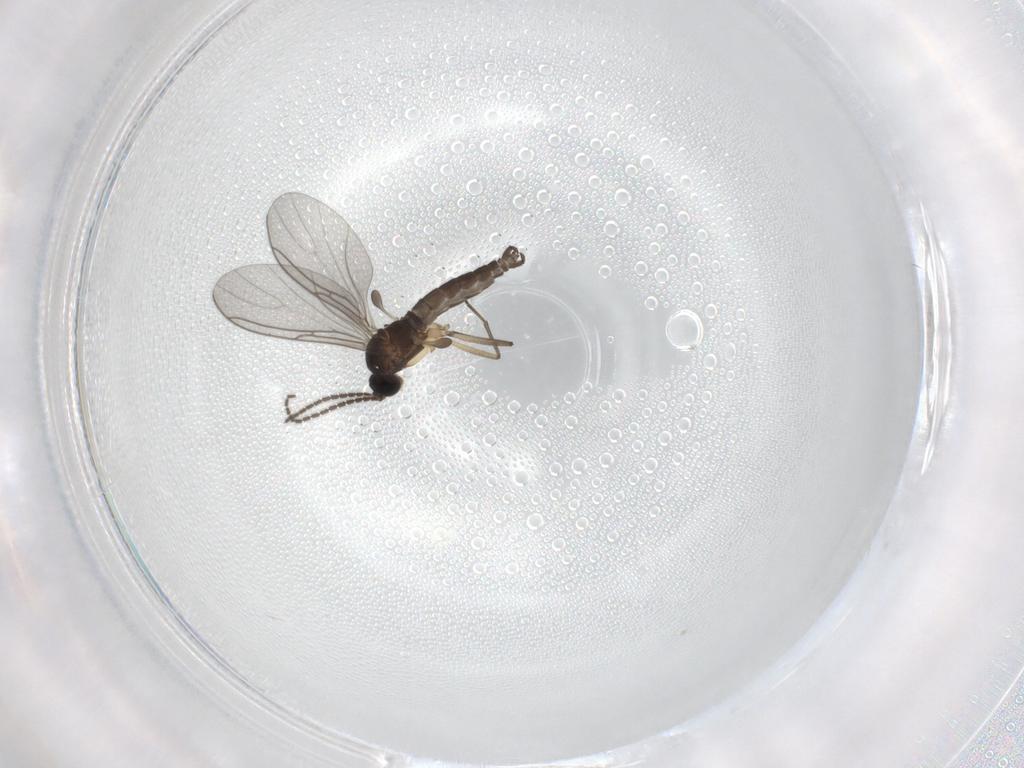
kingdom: Animalia
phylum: Arthropoda
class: Insecta
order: Diptera
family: Sciaridae
